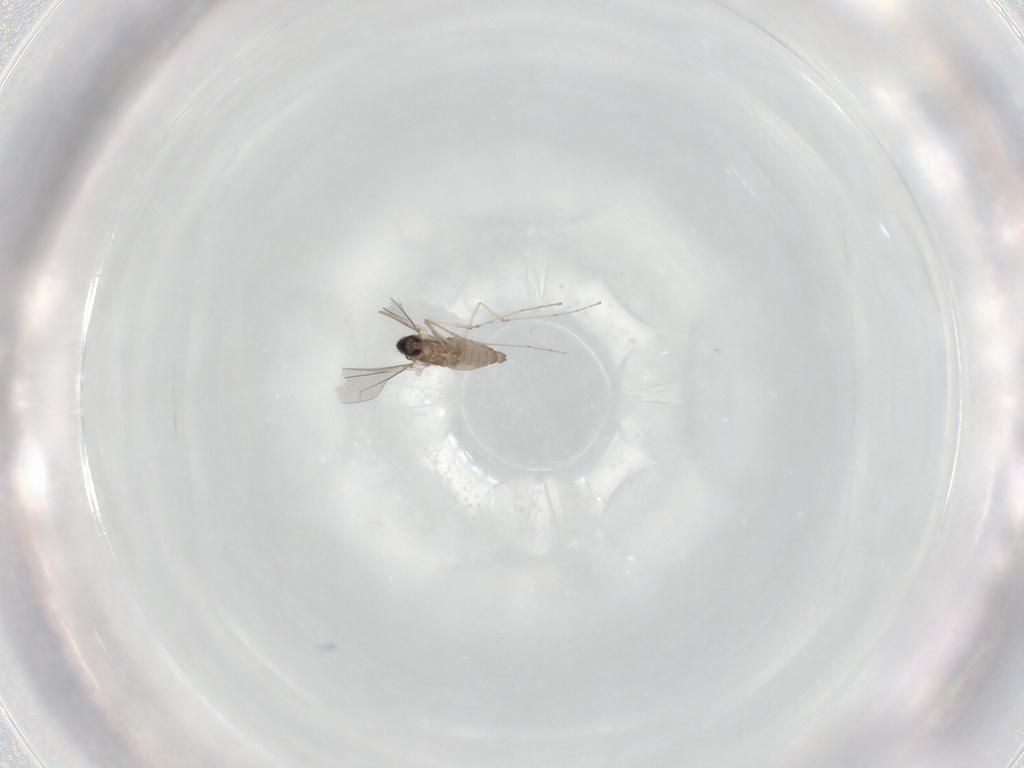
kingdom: Animalia
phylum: Arthropoda
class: Insecta
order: Diptera
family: Cecidomyiidae
